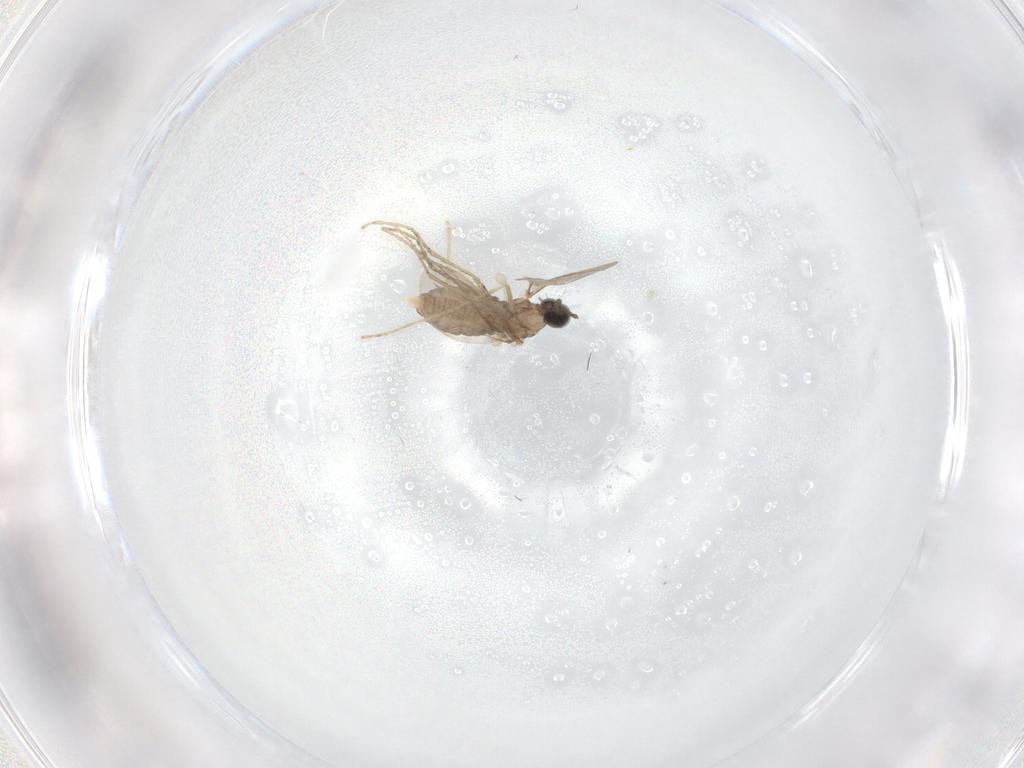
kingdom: Animalia
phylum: Arthropoda
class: Insecta
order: Diptera
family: Cecidomyiidae
